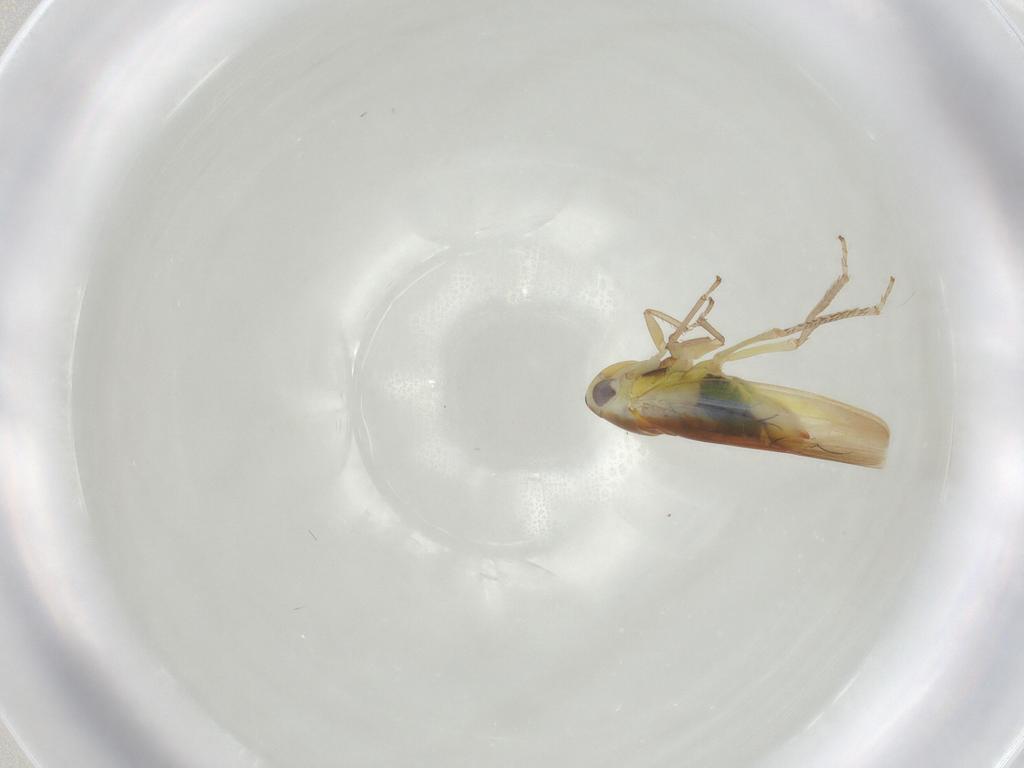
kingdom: Animalia
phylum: Arthropoda
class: Insecta
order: Hemiptera
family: Cicadellidae
